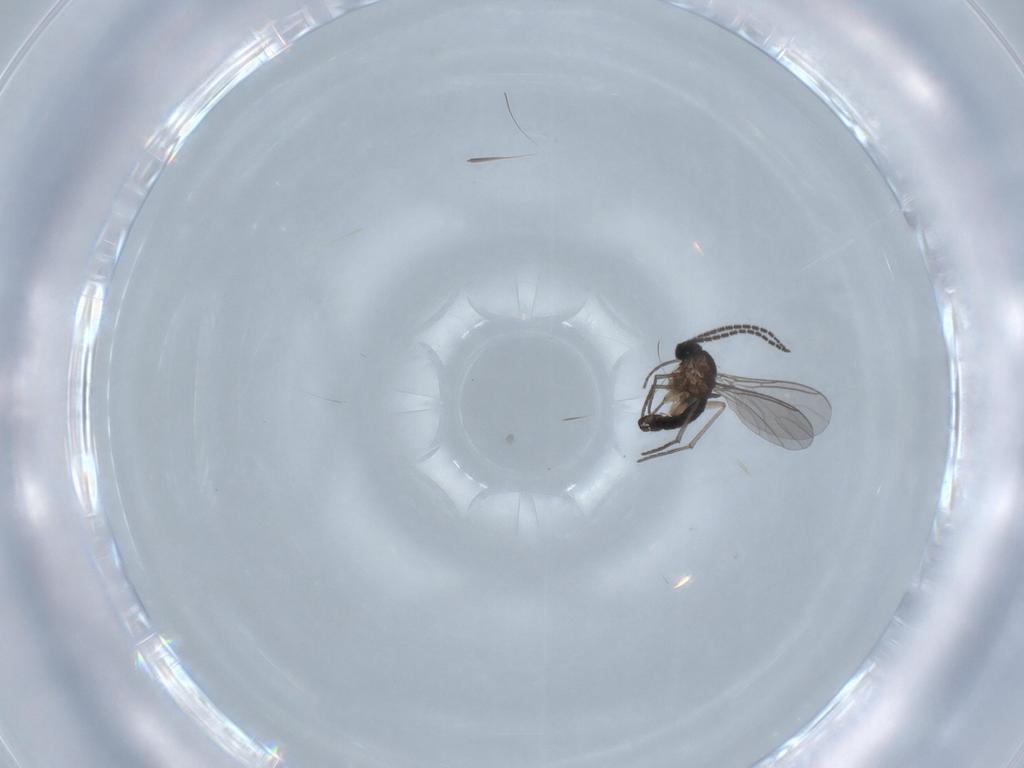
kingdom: Animalia
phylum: Arthropoda
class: Insecta
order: Diptera
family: Sciaridae
